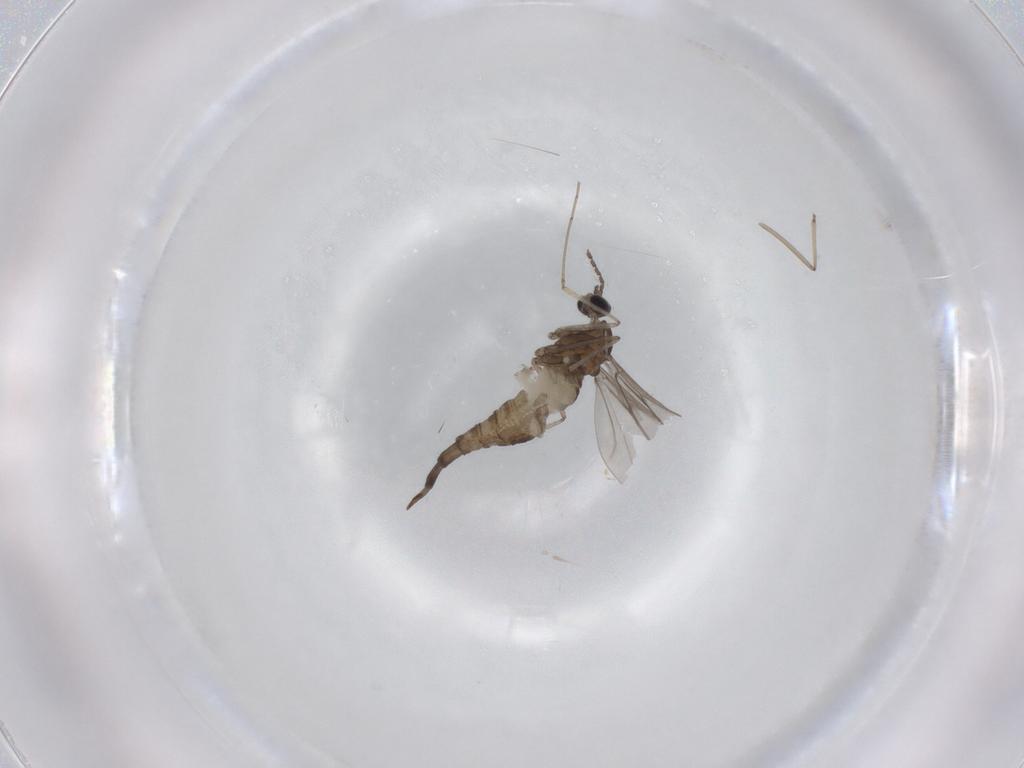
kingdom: Animalia
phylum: Arthropoda
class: Insecta
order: Diptera
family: Cecidomyiidae
